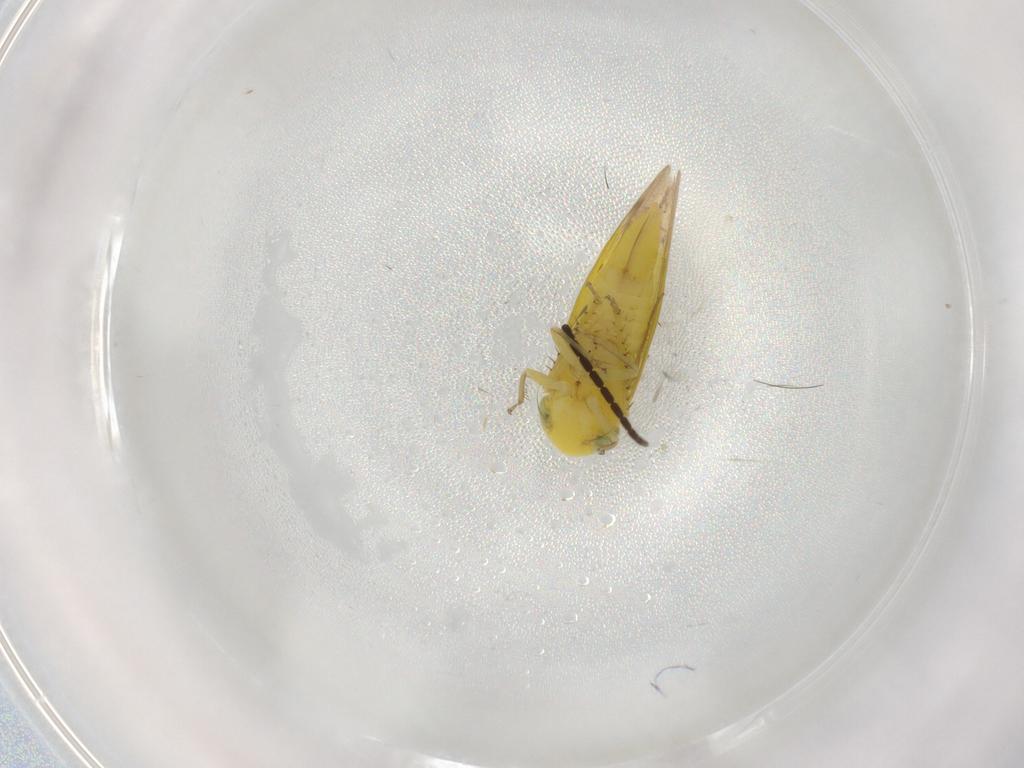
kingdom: Animalia
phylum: Arthropoda
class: Insecta
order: Hemiptera
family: Cicadellidae
